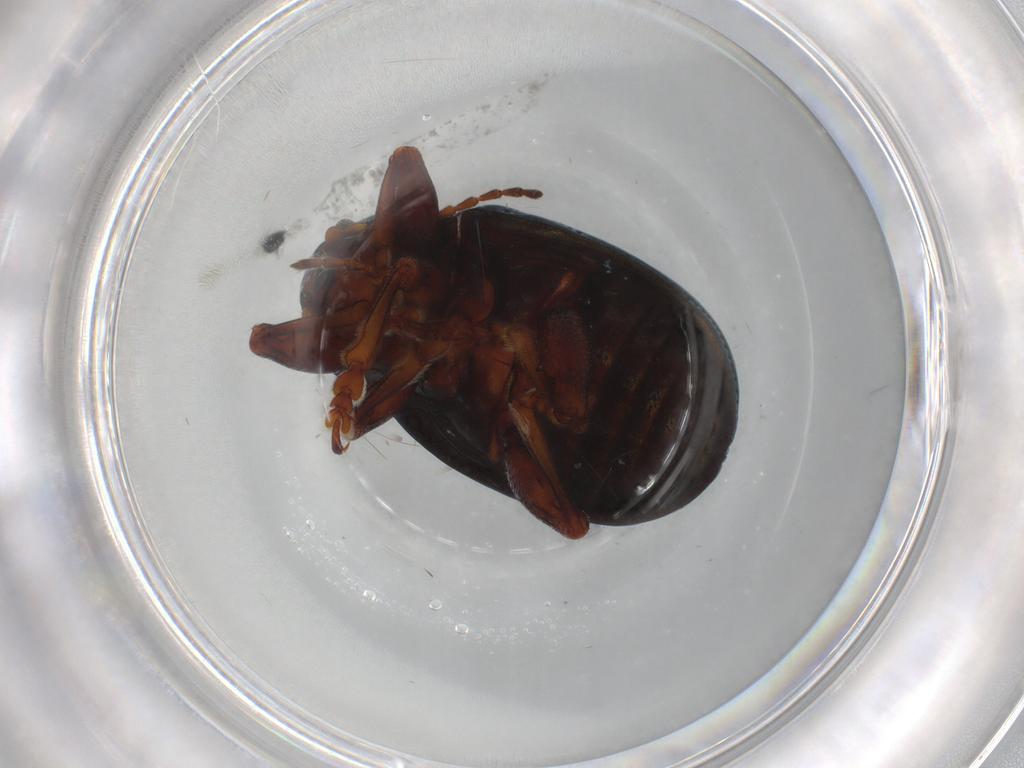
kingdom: Animalia
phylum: Arthropoda
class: Insecta
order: Coleoptera
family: Chrysomelidae
